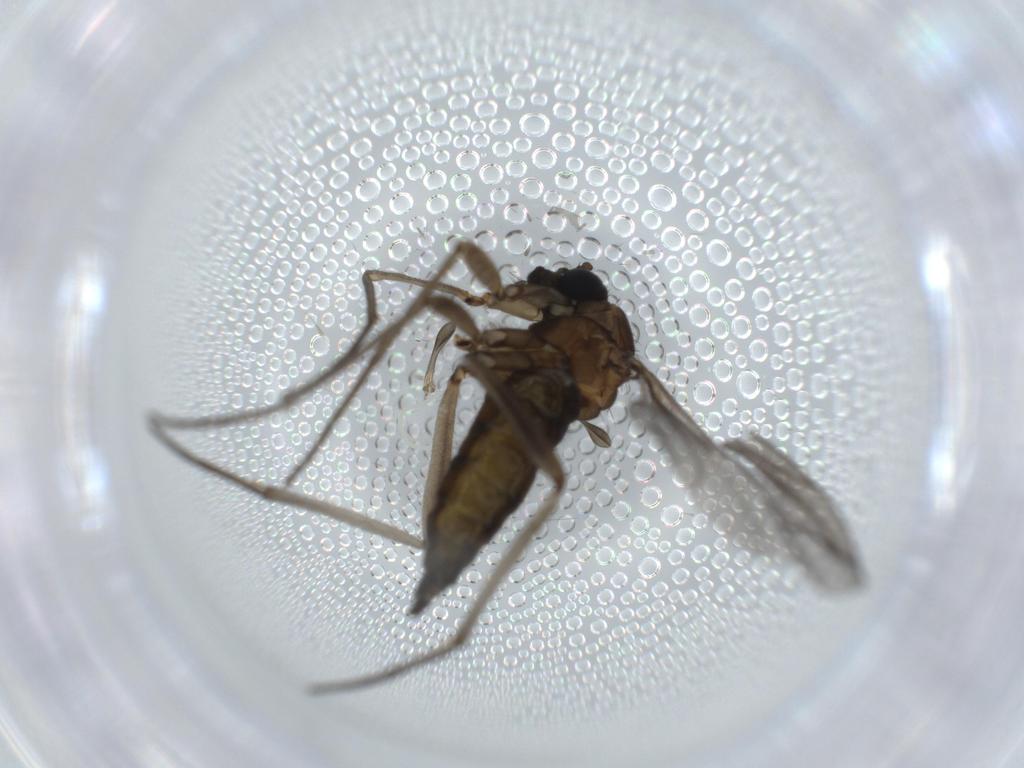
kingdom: Animalia
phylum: Arthropoda
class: Insecta
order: Diptera
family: Sciaridae
